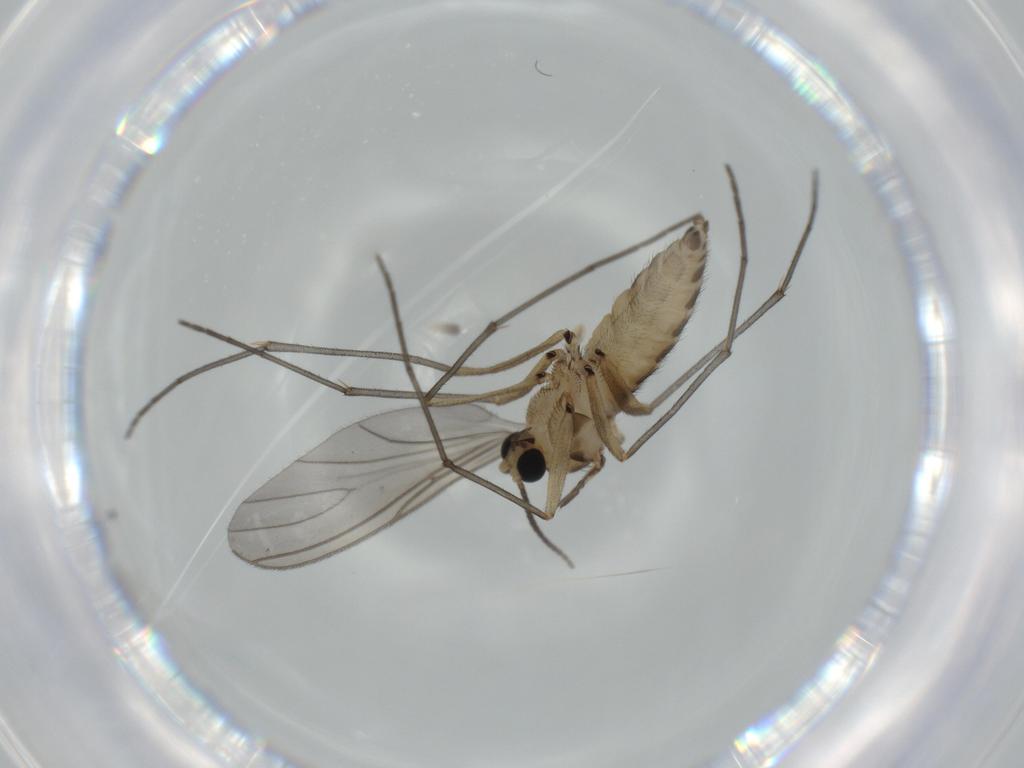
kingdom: Animalia
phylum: Arthropoda
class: Insecta
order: Diptera
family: Sciaridae
